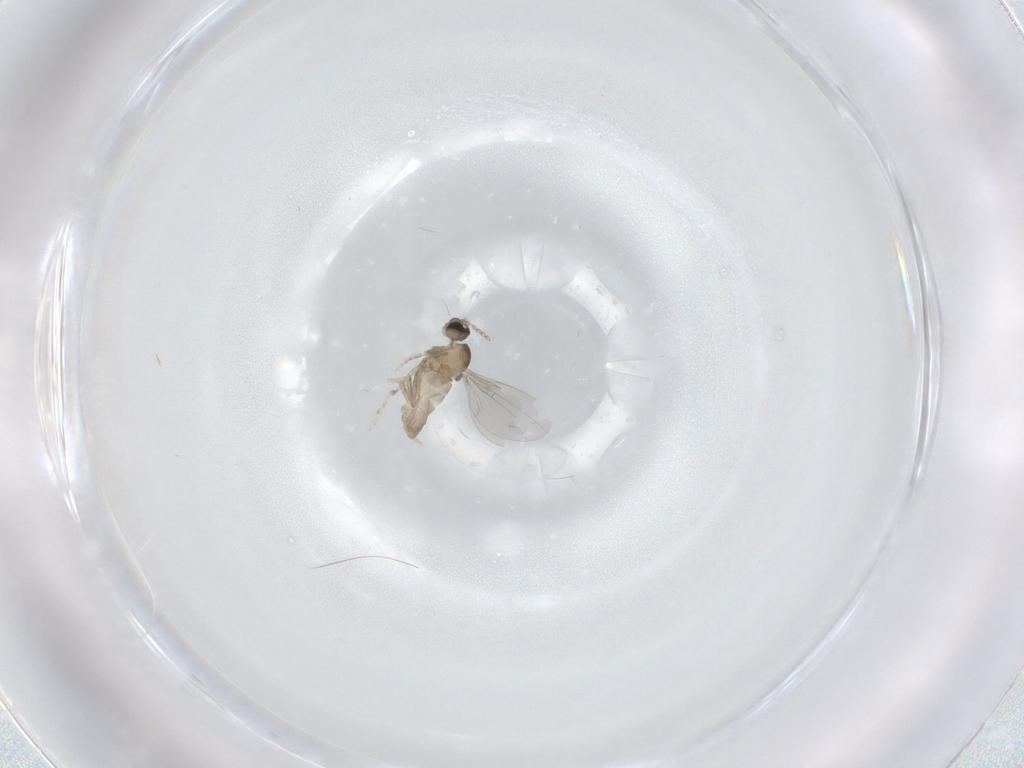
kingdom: Animalia
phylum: Arthropoda
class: Insecta
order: Diptera
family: Cecidomyiidae
